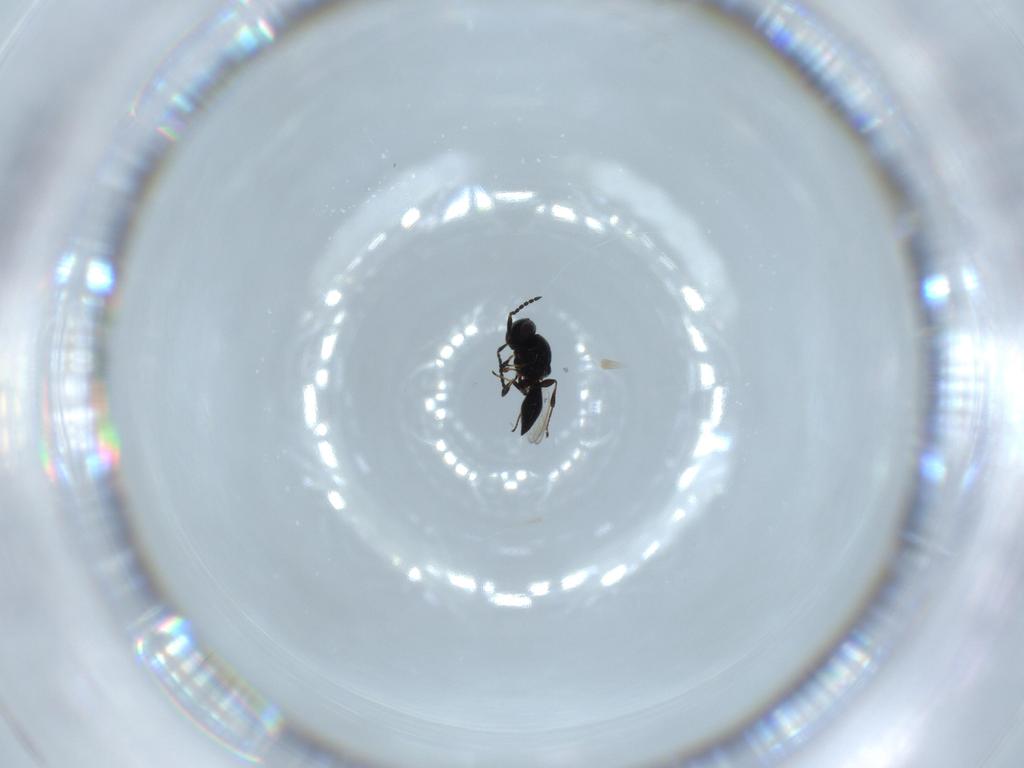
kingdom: Animalia
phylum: Arthropoda
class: Insecta
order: Hymenoptera
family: Platygastridae
